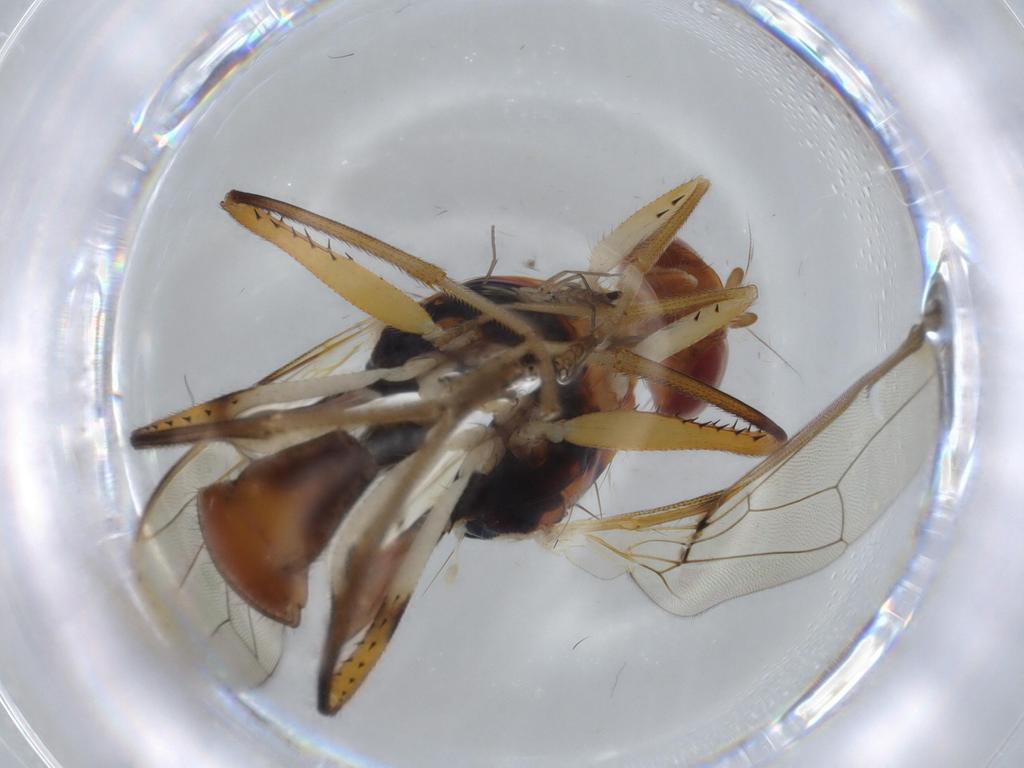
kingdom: Animalia
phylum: Arthropoda
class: Insecta
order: Diptera
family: Richardiidae
